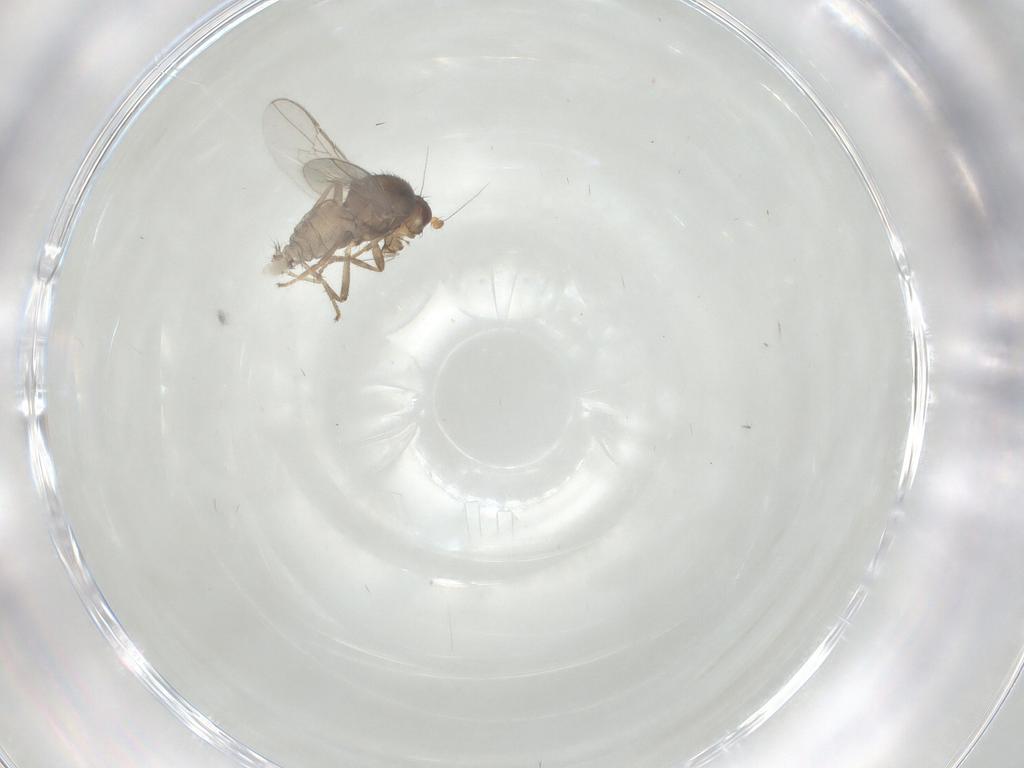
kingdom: Animalia
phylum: Arthropoda
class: Insecta
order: Diptera
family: Sphaeroceridae
